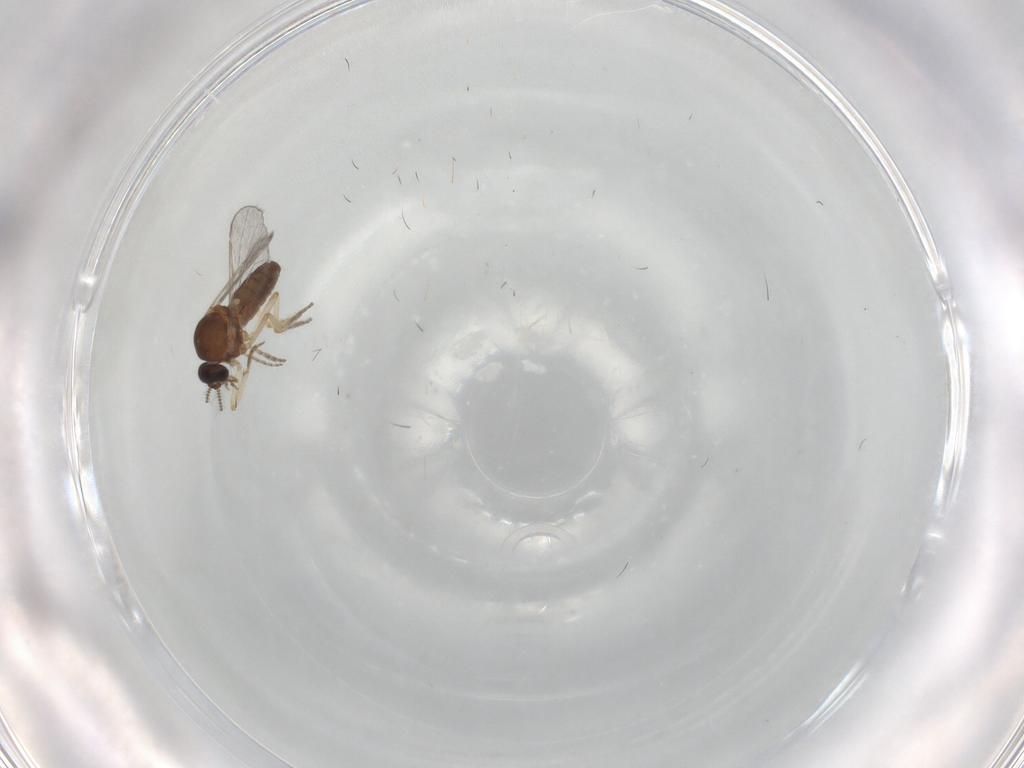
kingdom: Animalia
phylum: Arthropoda
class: Insecta
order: Diptera
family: Ceratopogonidae
